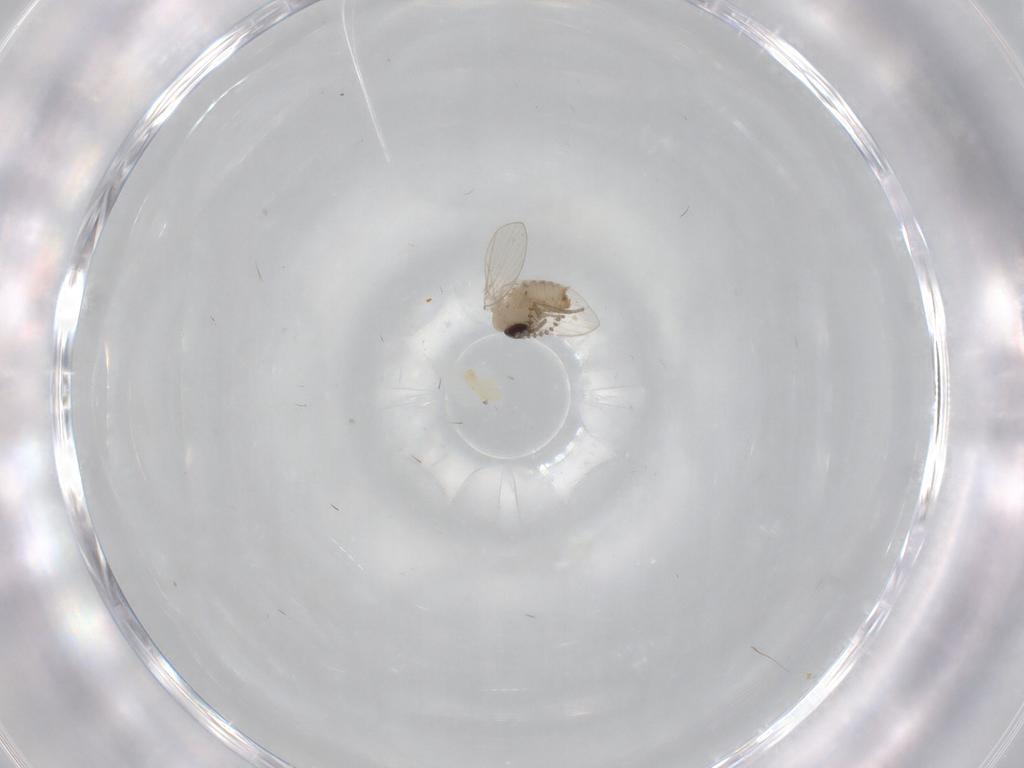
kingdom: Animalia
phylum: Arthropoda
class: Insecta
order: Diptera
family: Psychodidae
